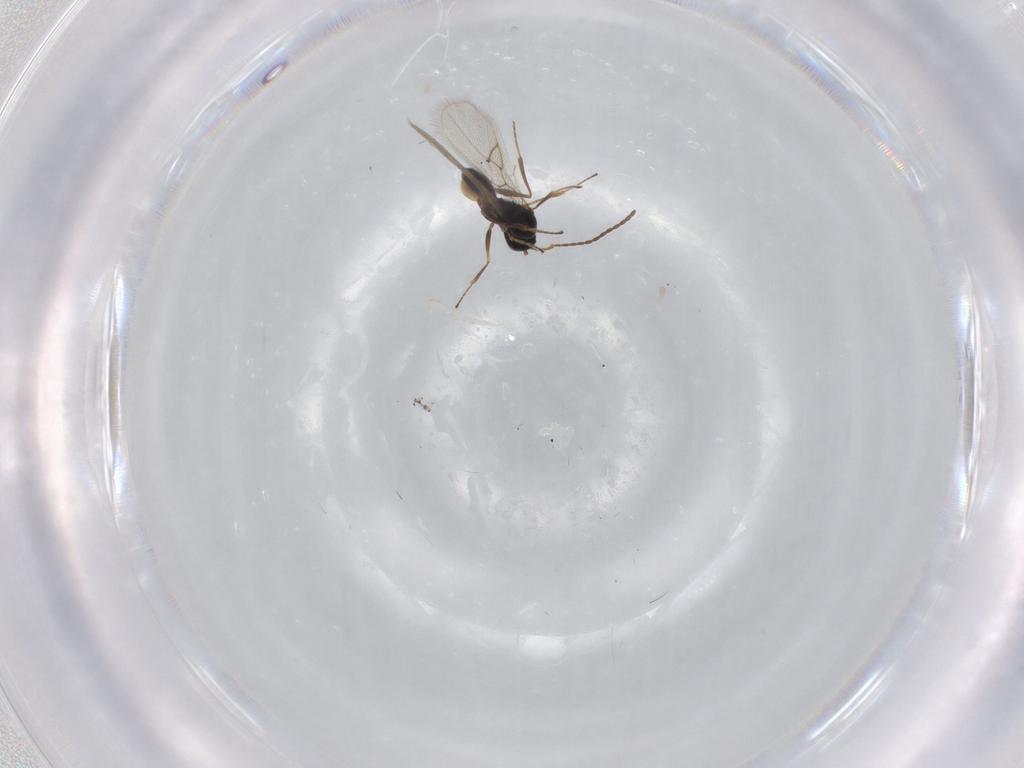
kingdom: Animalia
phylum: Arthropoda
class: Insecta
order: Hymenoptera
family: Figitidae
